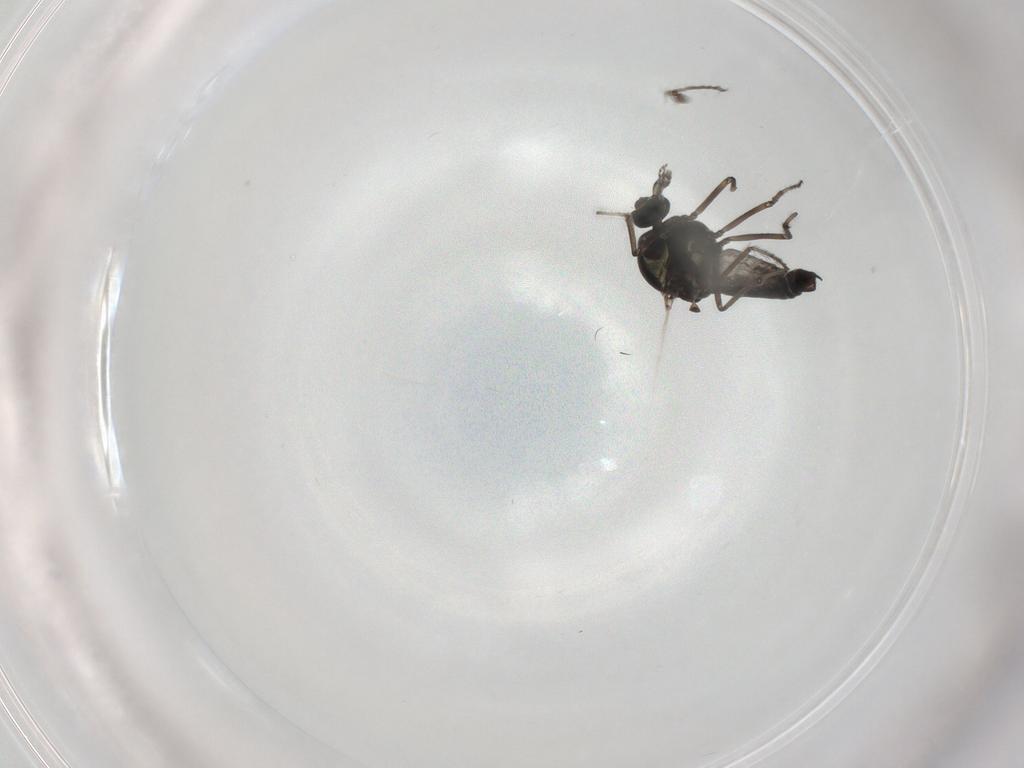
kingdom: Animalia
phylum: Arthropoda
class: Insecta
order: Diptera
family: Ceratopogonidae
